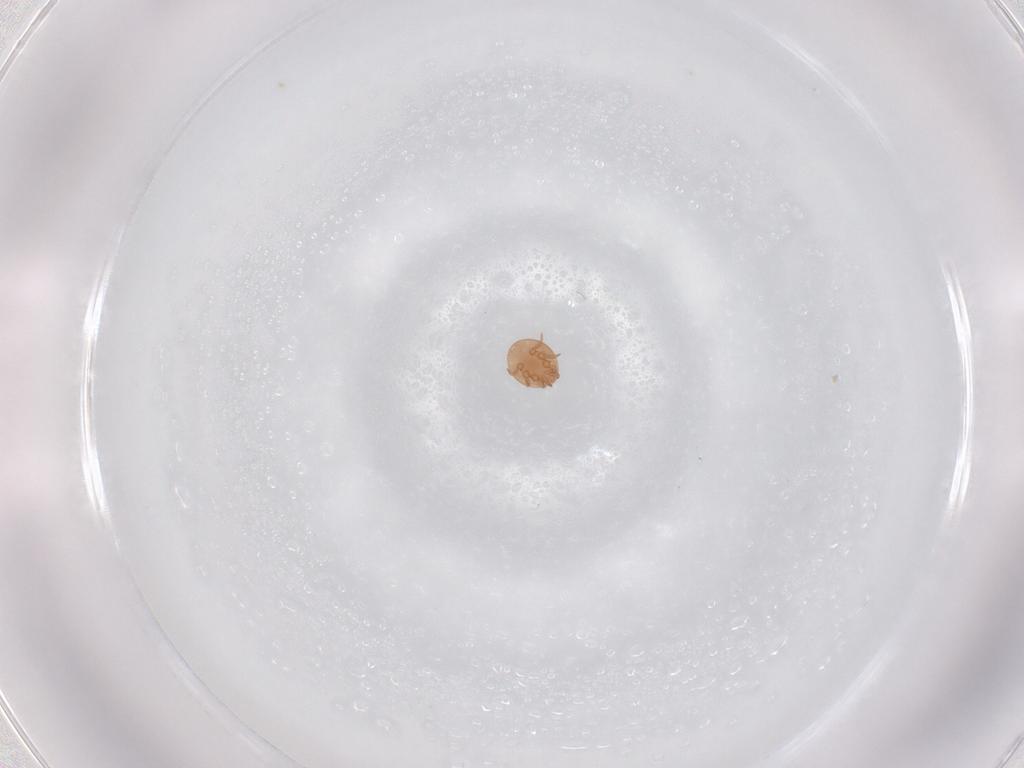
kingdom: Animalia
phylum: Arthropoda
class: Arachnida
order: Mesostigmata
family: Trematuridae
